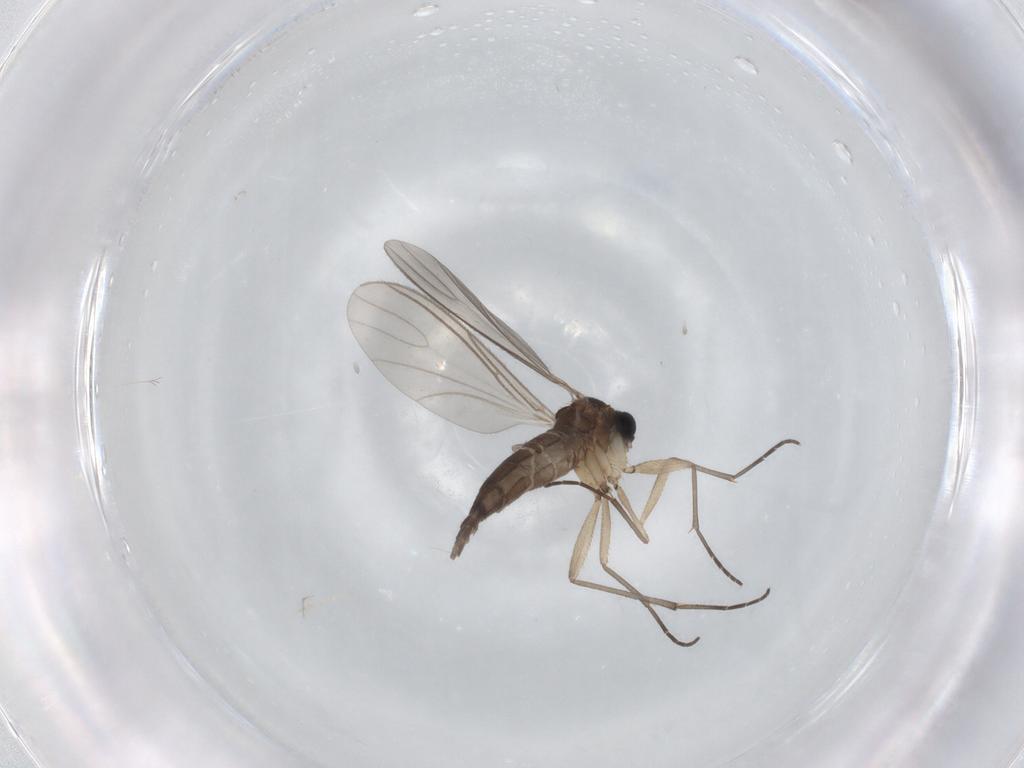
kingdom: Animalia
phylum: Arthropoda
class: Insecta
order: Diptera
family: Sciaridae
